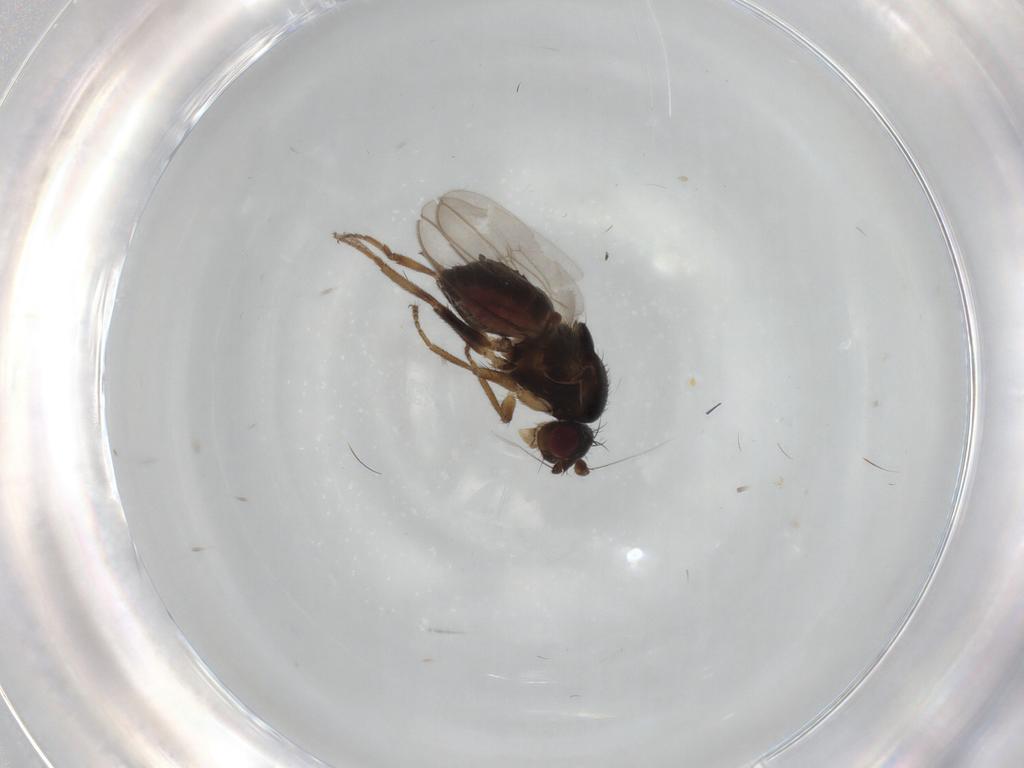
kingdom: Animalia
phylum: Arthropoda
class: Insecta
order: Diptera
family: Sphaeroceridae
